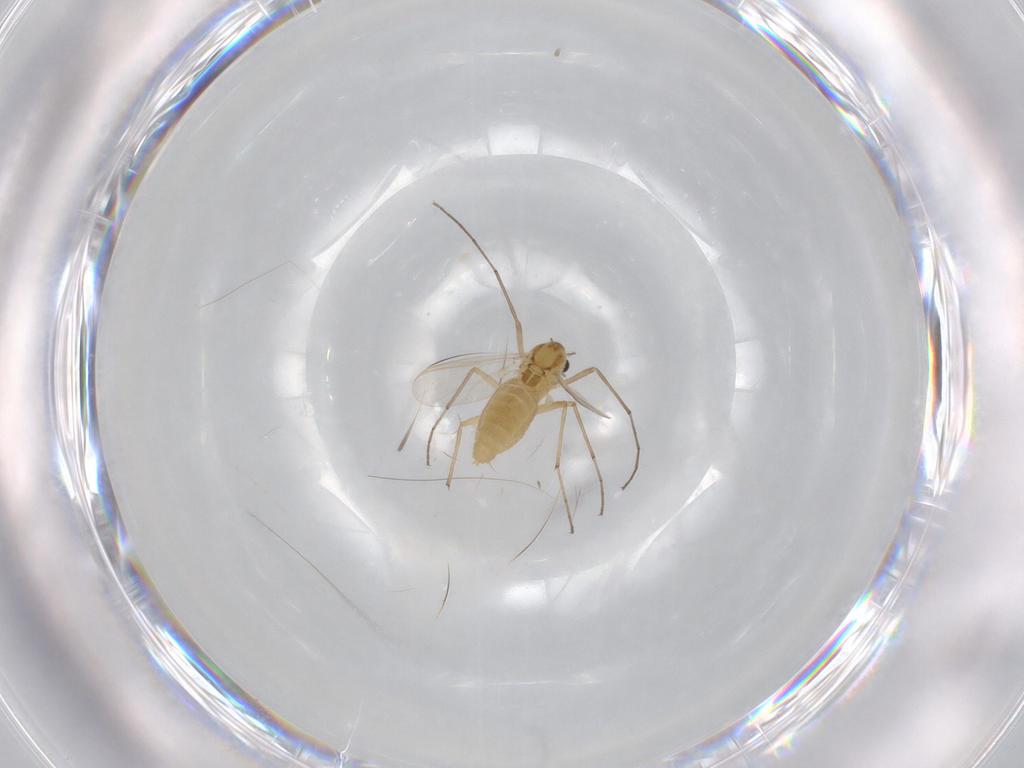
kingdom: Animalia
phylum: Arthropoda
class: Insecta
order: Diptera
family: Chironomidae
